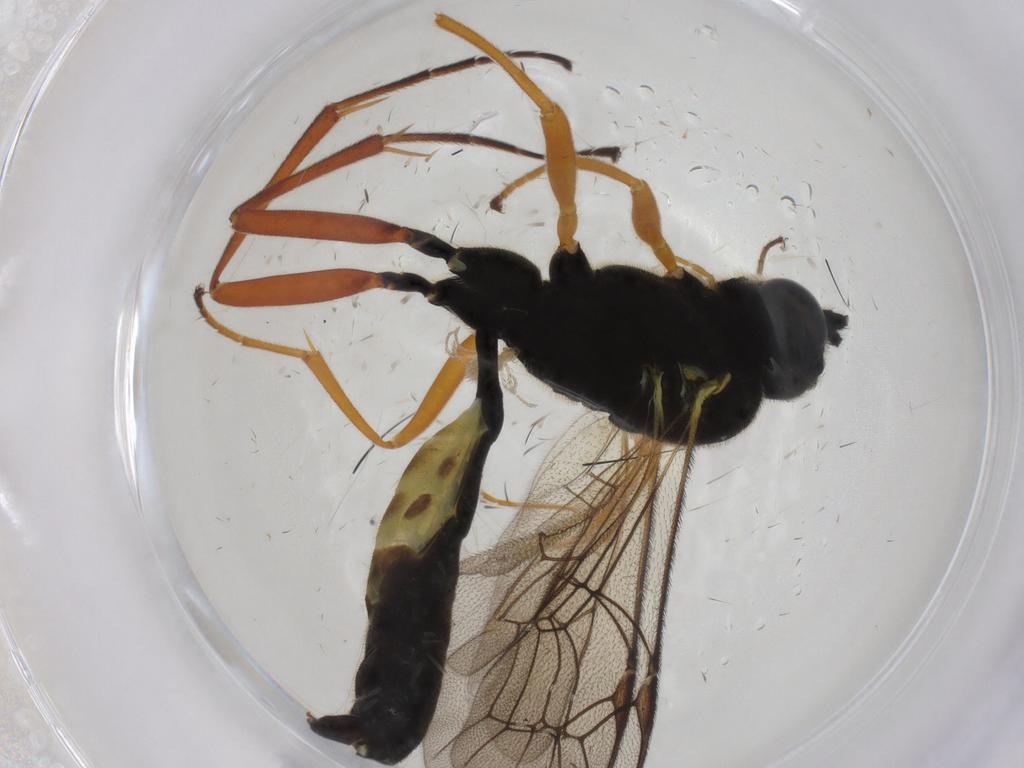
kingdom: Animalia
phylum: Arthropoda
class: Insecta
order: Hymenoptera
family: Ichneumonidae
